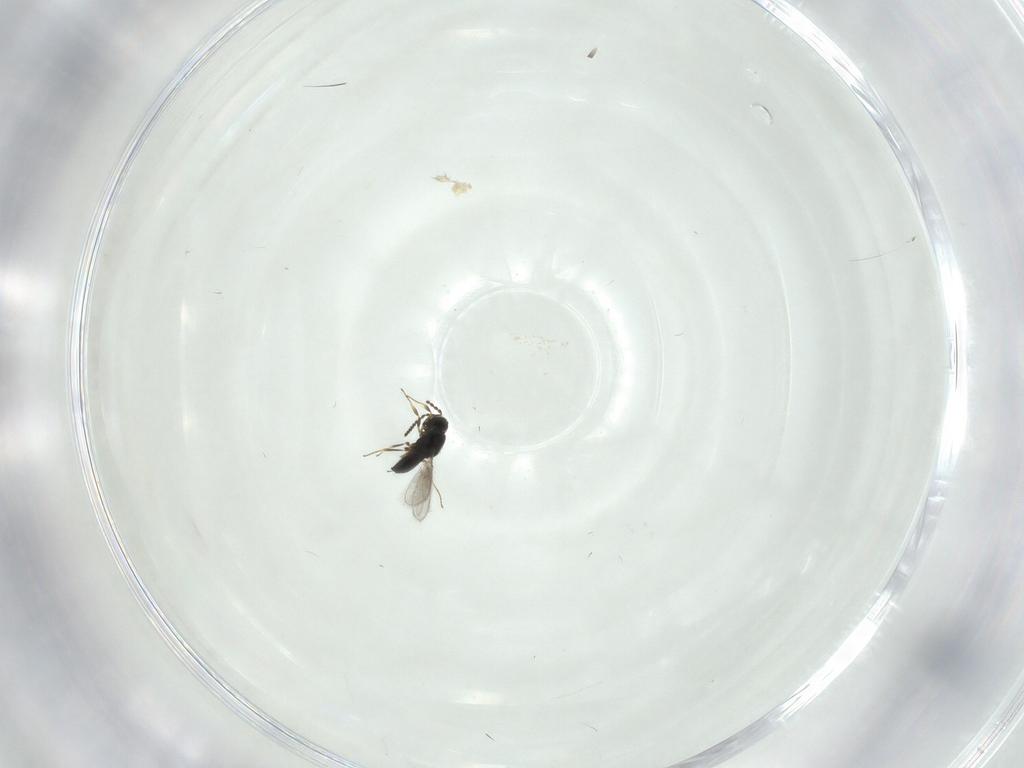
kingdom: Animalia
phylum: Arthropoda
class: Insecta
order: Hymenoptera
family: Scelionidae
